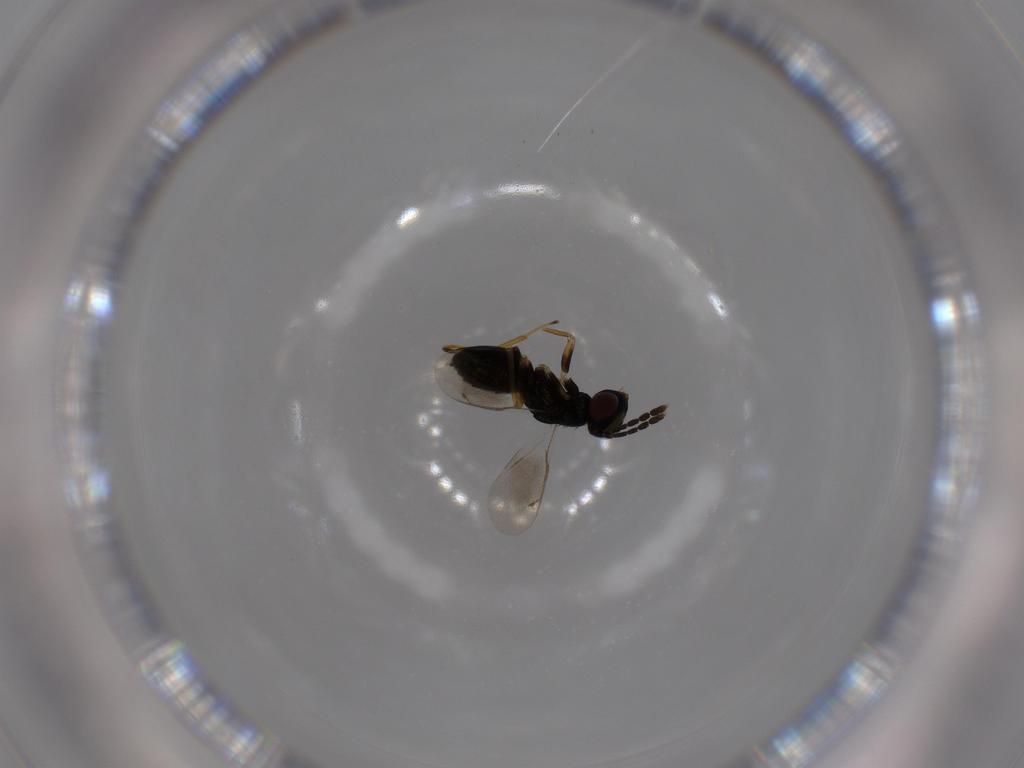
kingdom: Animalia
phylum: Arthropoda
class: Insecta
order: Hymenoptera
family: Eulophidae
